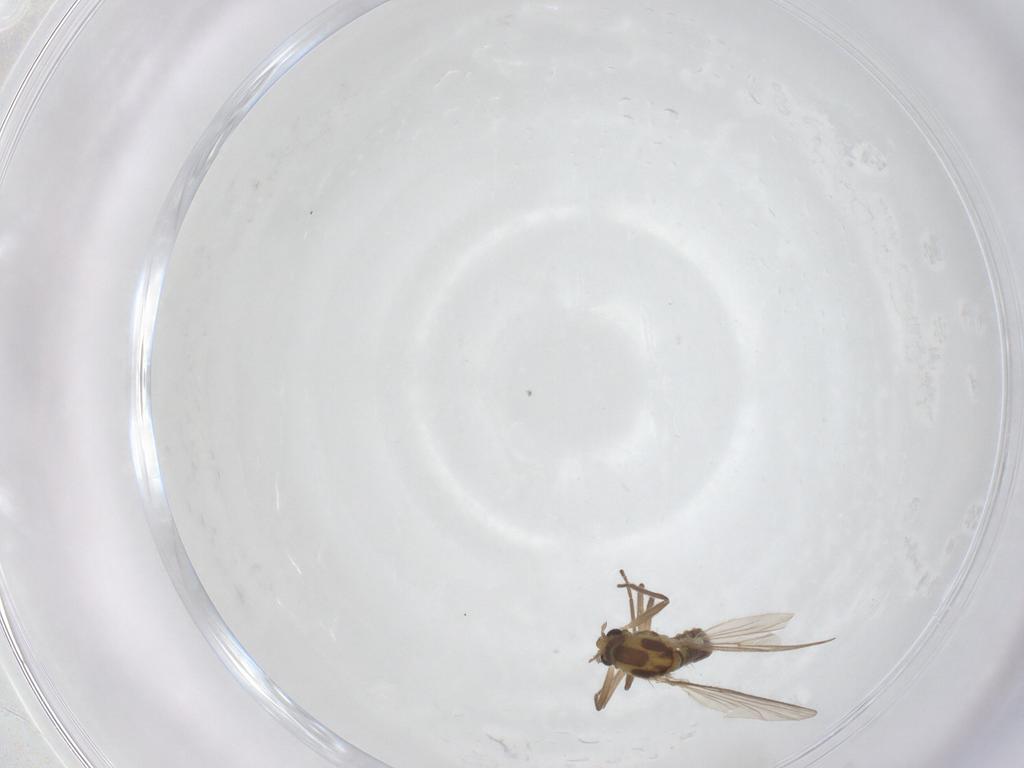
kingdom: Animalia
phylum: Arthropoda
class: Insecta
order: Diptera
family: Chironomidae
